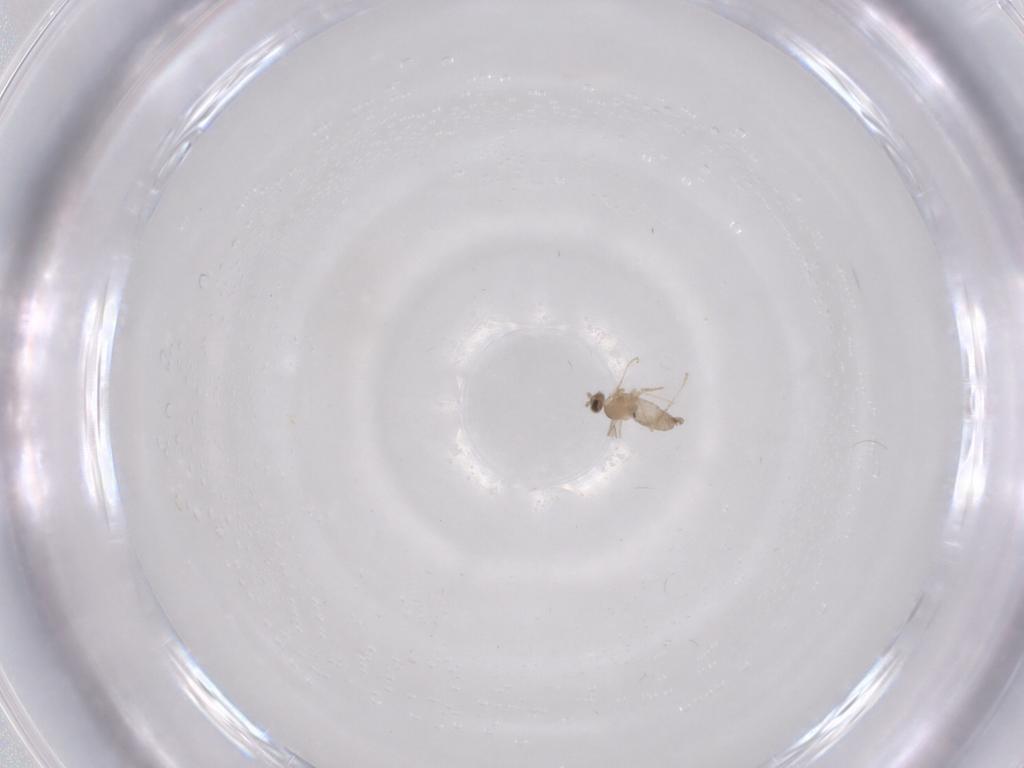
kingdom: Animalia
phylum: Arthropoda
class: Insecta
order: Diptera
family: Cecidomyiidae
